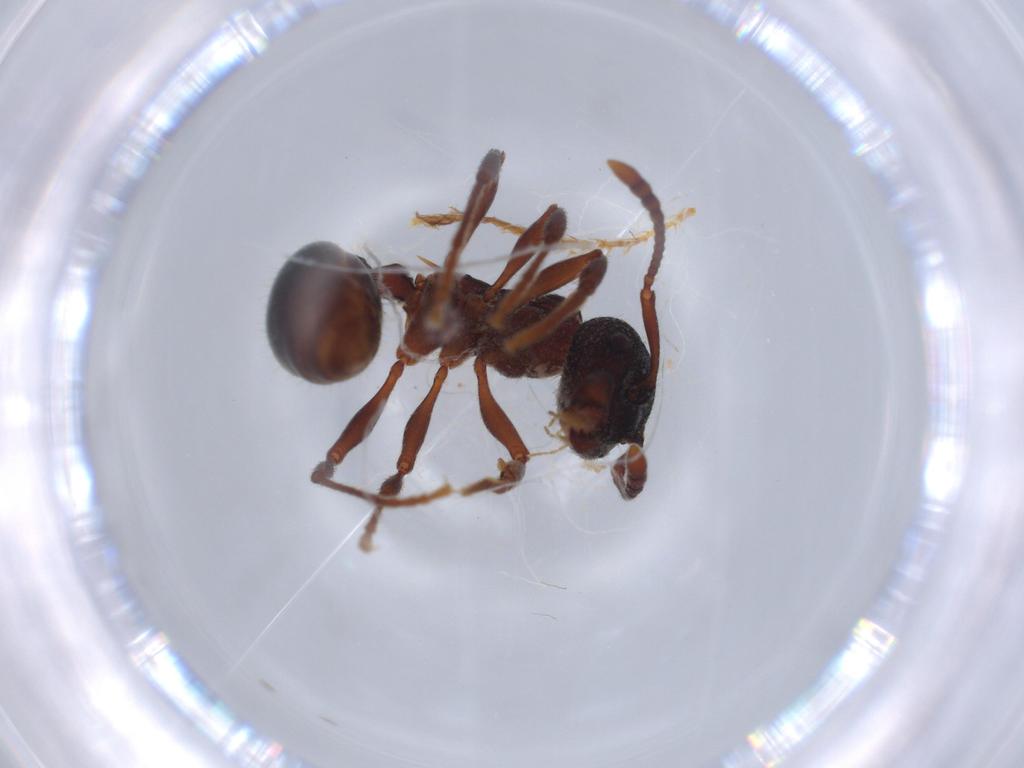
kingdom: Animalia
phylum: Arthropoda
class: Insecta
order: Hymenoptera
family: Formicidae
